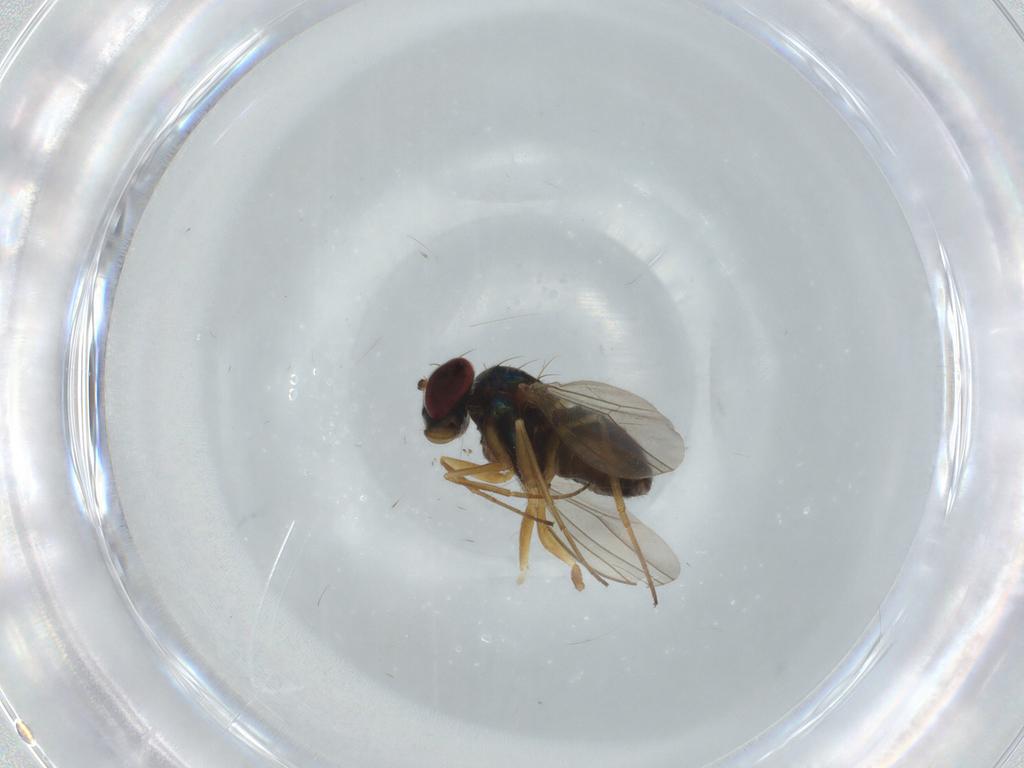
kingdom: Animalia
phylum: Arthropoda
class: Insecta
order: Diptera
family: Dolichopodidae
